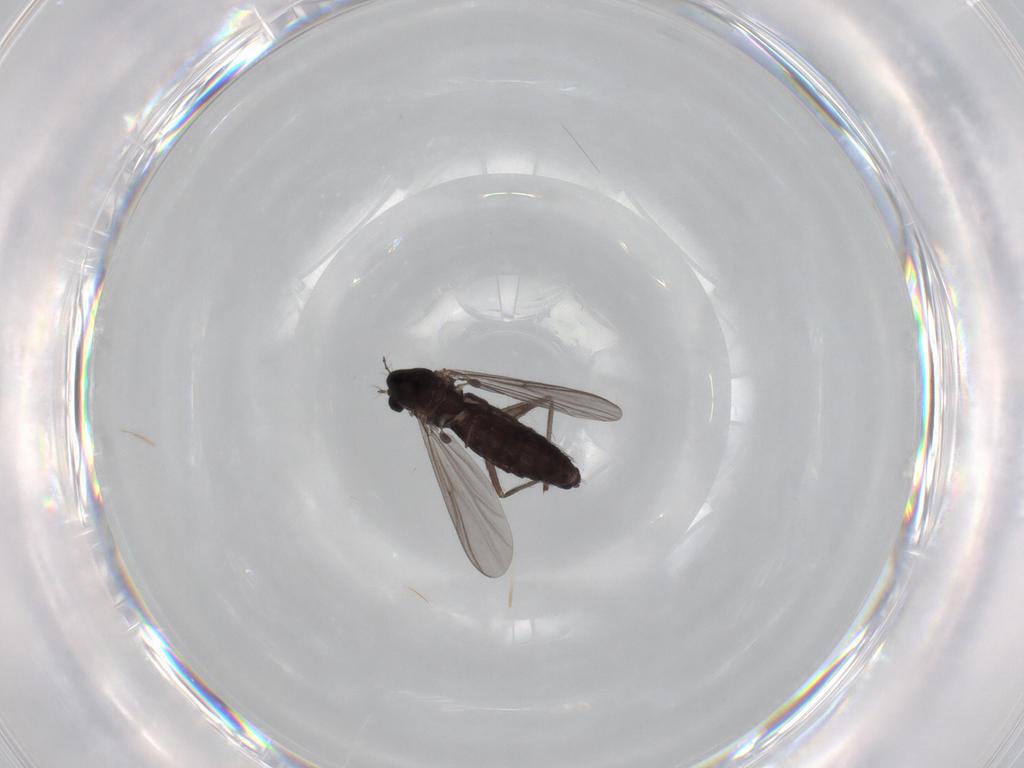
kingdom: Animalia
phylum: Arthropoda
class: Insecta
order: Diptera
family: Chironomidae
